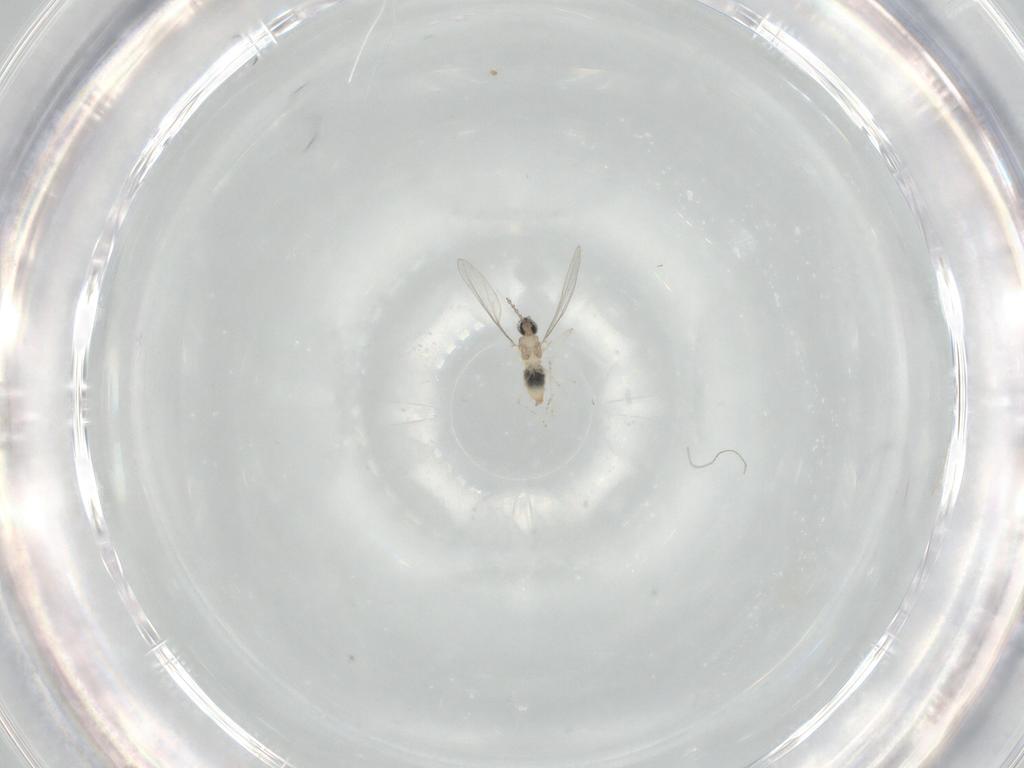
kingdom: Animalia
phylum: Arthropoda
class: Insecta
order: Diptera
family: Cecidomyiidae
